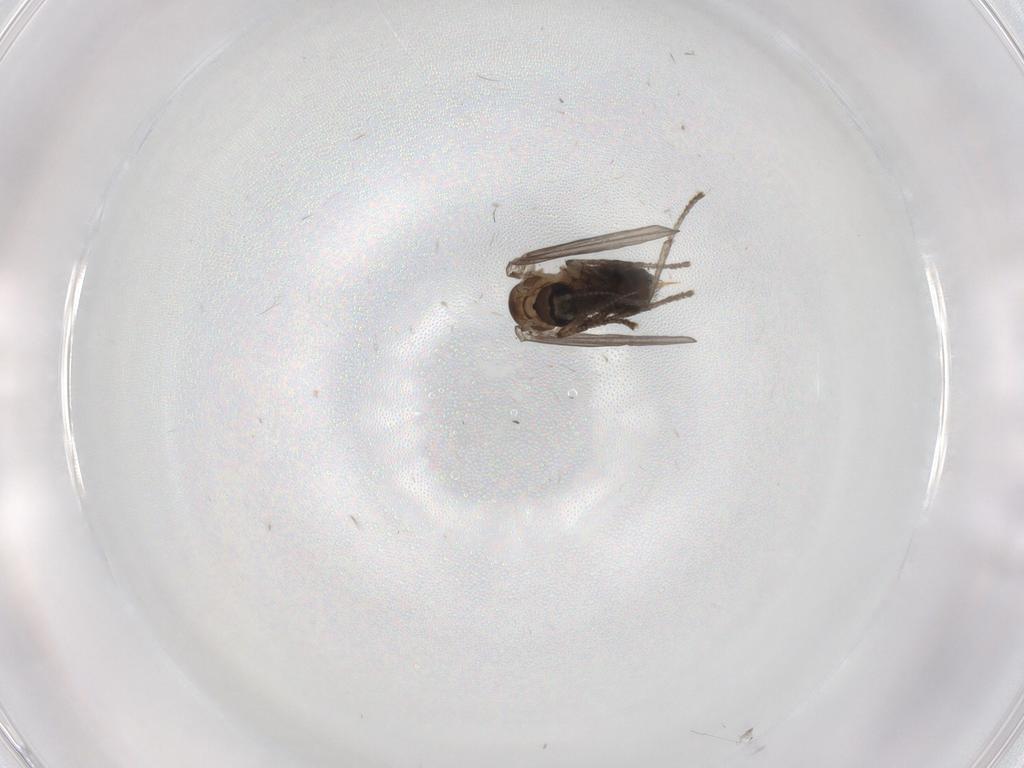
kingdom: Animalia
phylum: Arthropoda
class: Insecta
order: Diptera
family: Psychodidae
